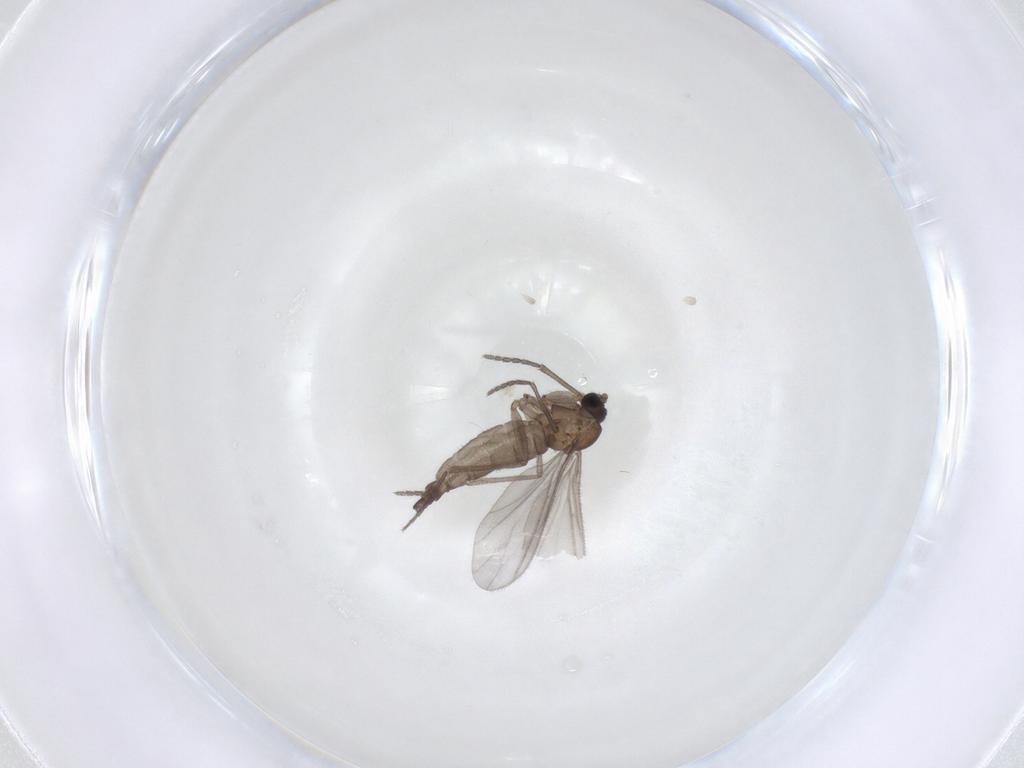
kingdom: Animalia
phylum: Arthropoda
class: Insecta
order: Diptera
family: Sciaridae
